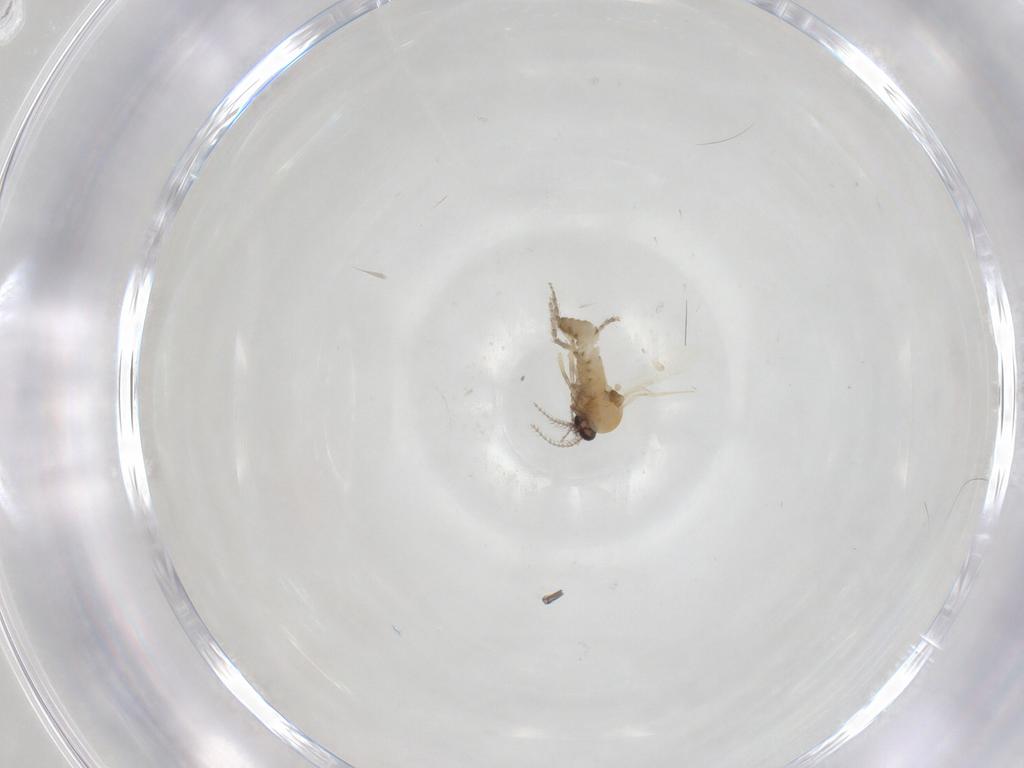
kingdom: Animalia
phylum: Arthropoda
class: Insecta
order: Diptera
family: Ceratopogonidae
